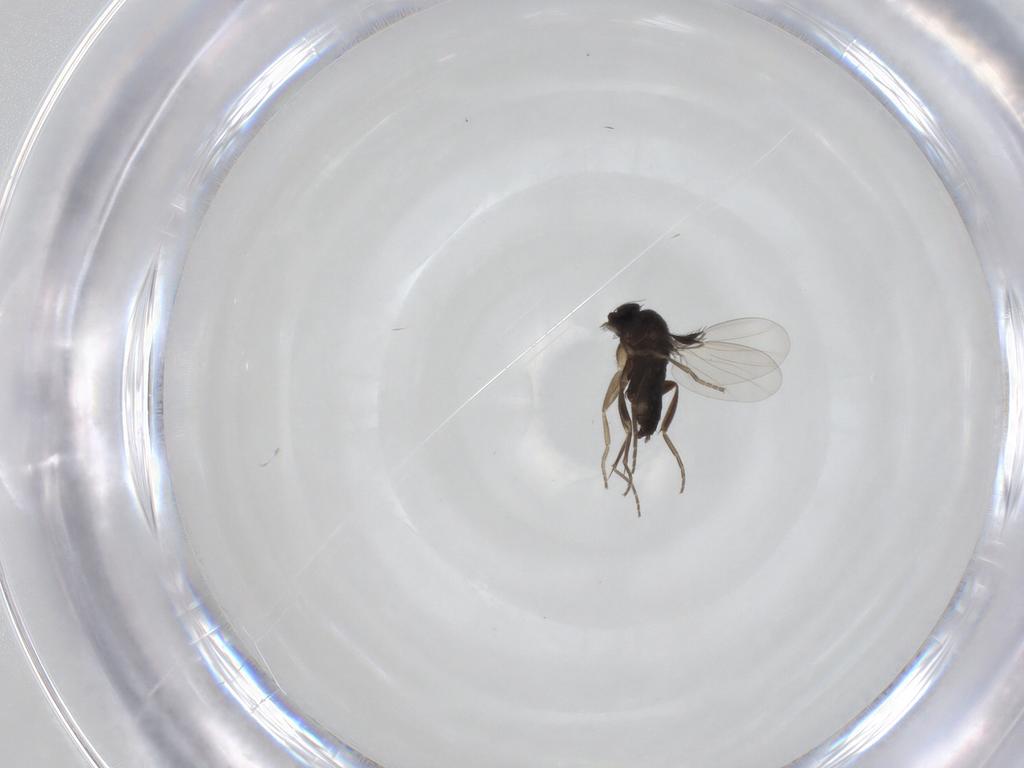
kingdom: Animalia
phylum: Arthropoda
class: Insecta
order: Diptera
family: Phoridae
